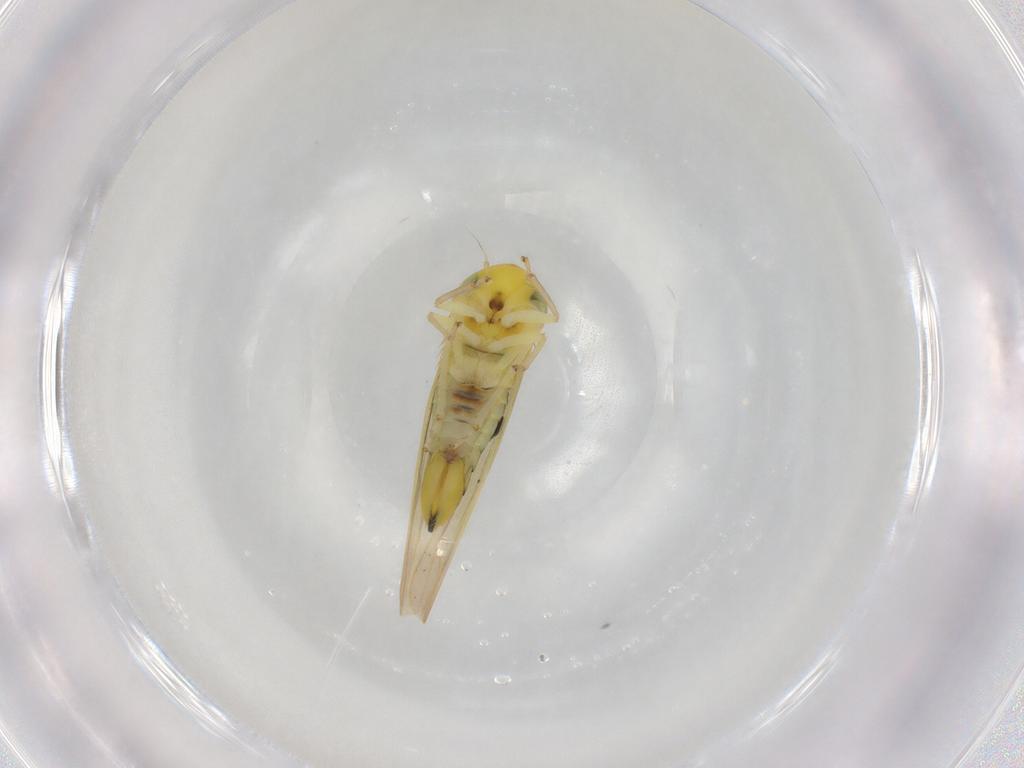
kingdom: Animalia
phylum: Arthropoda
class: Insecta
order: Hemiptera
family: Cicadellidae
